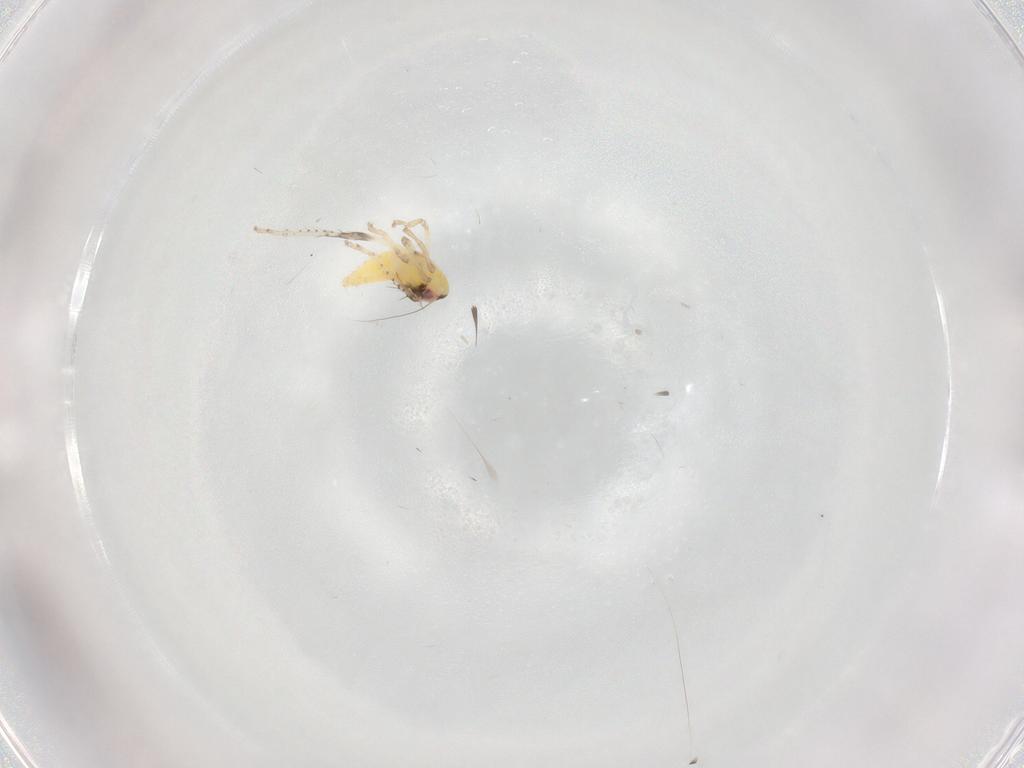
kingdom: Animalia
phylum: Arthropoda
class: Insecta
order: Hemiptera
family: Cicadellidae
